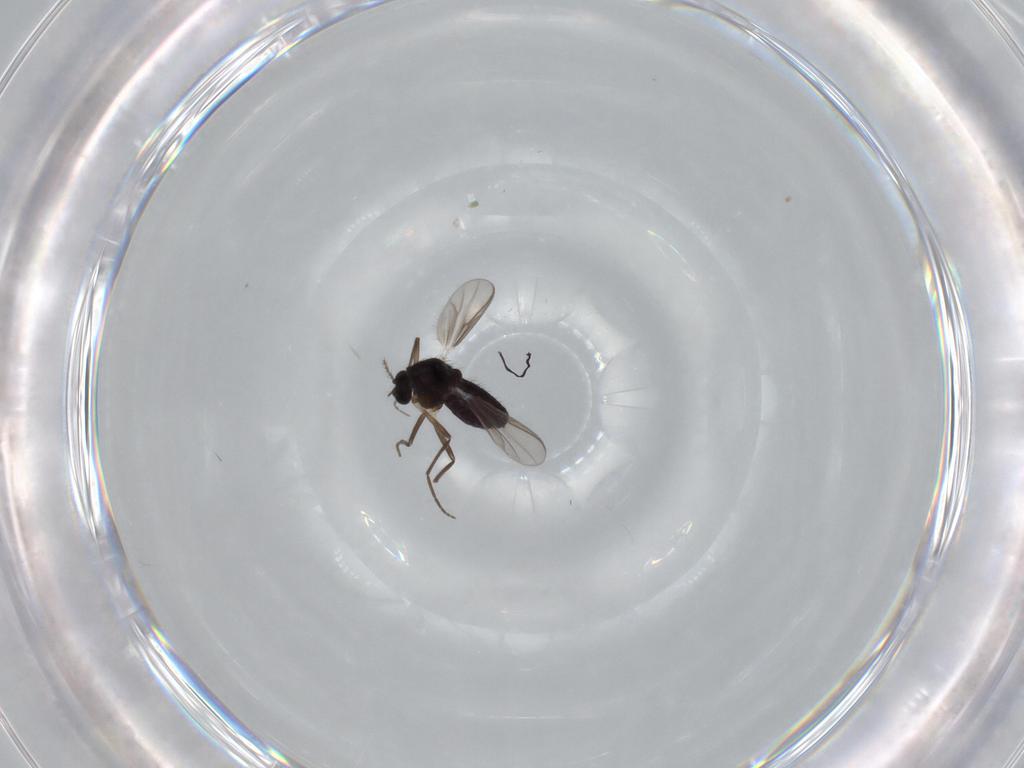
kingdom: Animalia
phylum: Arthropoda
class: Insecta
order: Diptera
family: Chironomidae
